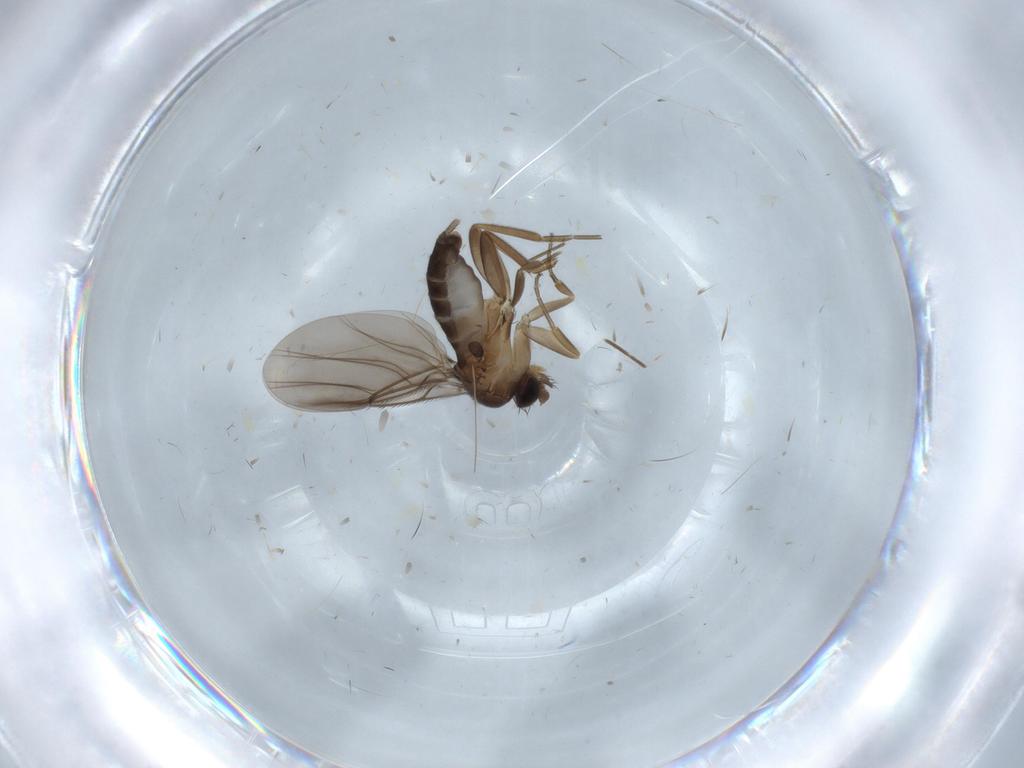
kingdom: Animalia
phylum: Arthropoda
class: Insecta
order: Diptera
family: Phoridae
